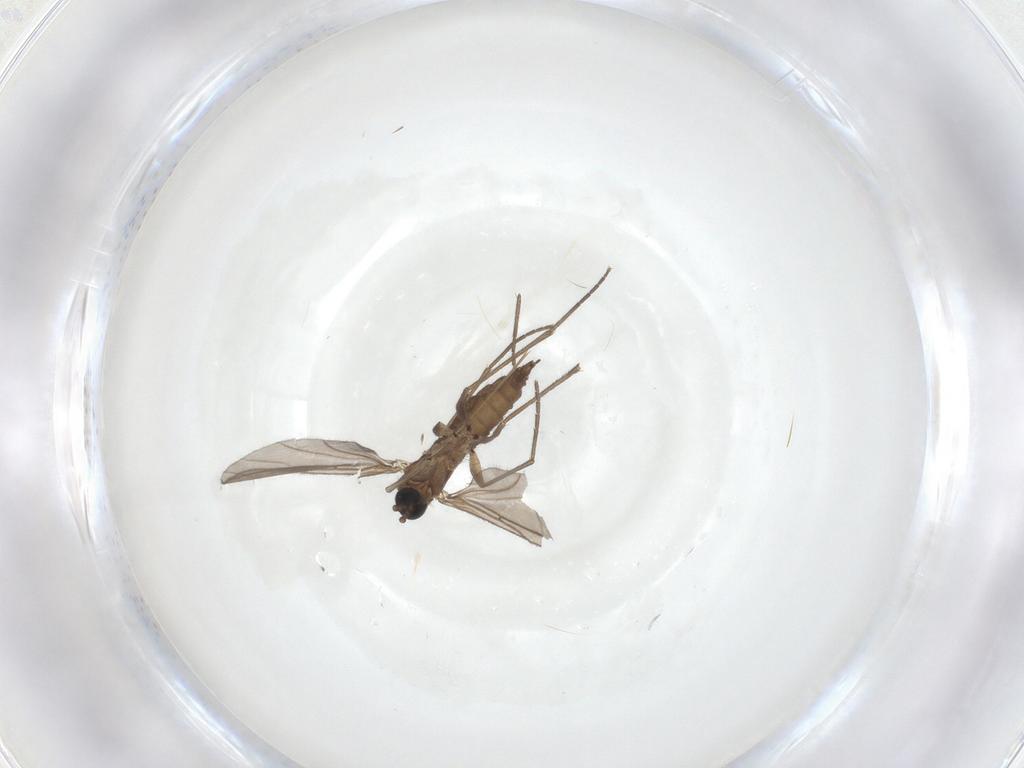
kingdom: Animalia
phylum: Arthropoda
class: Insecta
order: Diptera
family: Sciaridae
